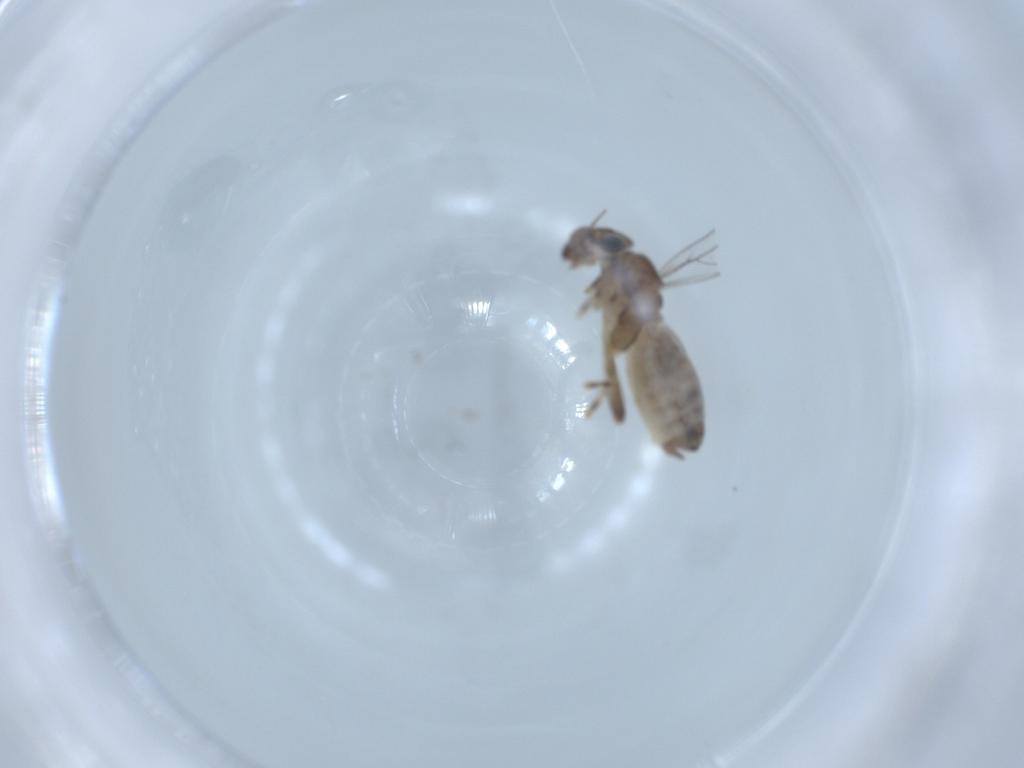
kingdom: Animalia
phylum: Arthropoda
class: Insecta
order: Psocodea
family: Lepidopsocidae
